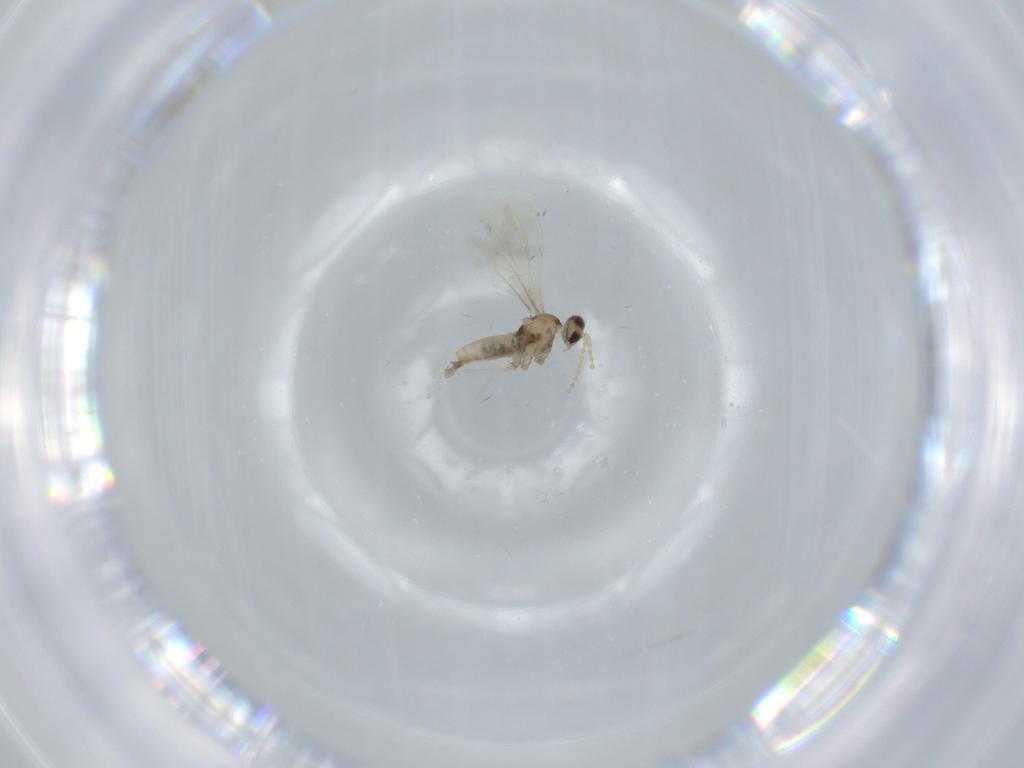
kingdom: Animalia
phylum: Arthropoda
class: Insecta
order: Diptera
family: Cecidomyiidae
